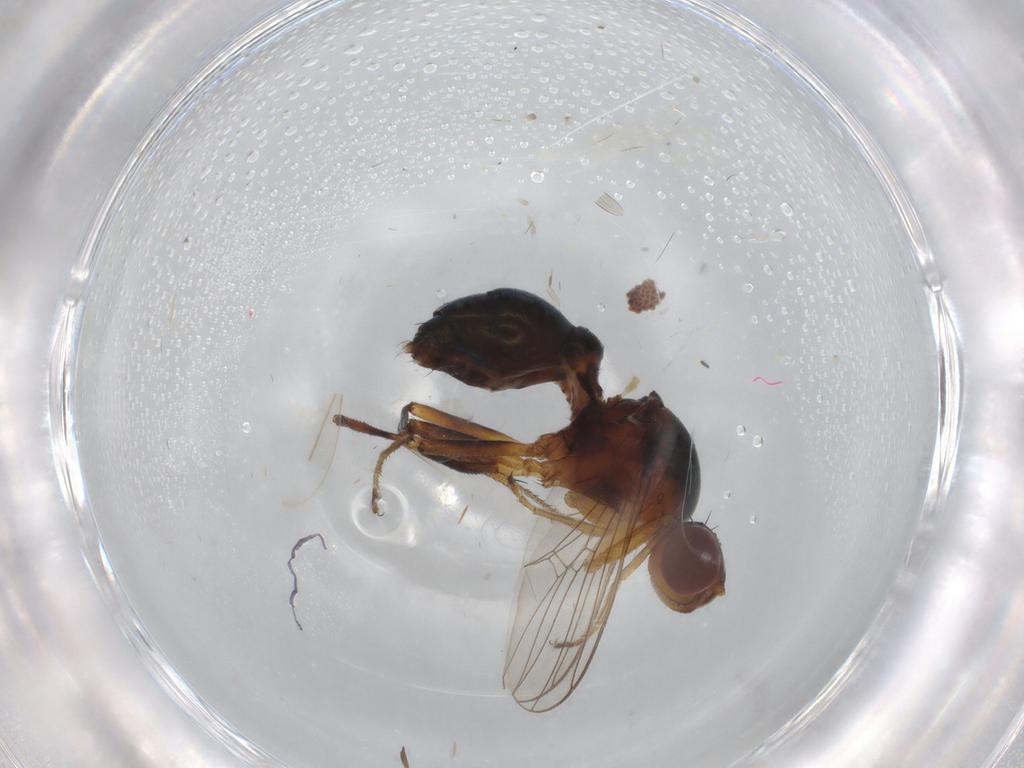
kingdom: Animalia
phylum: Arthropoda
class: Insecta
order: Diptera
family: Sepsidae
